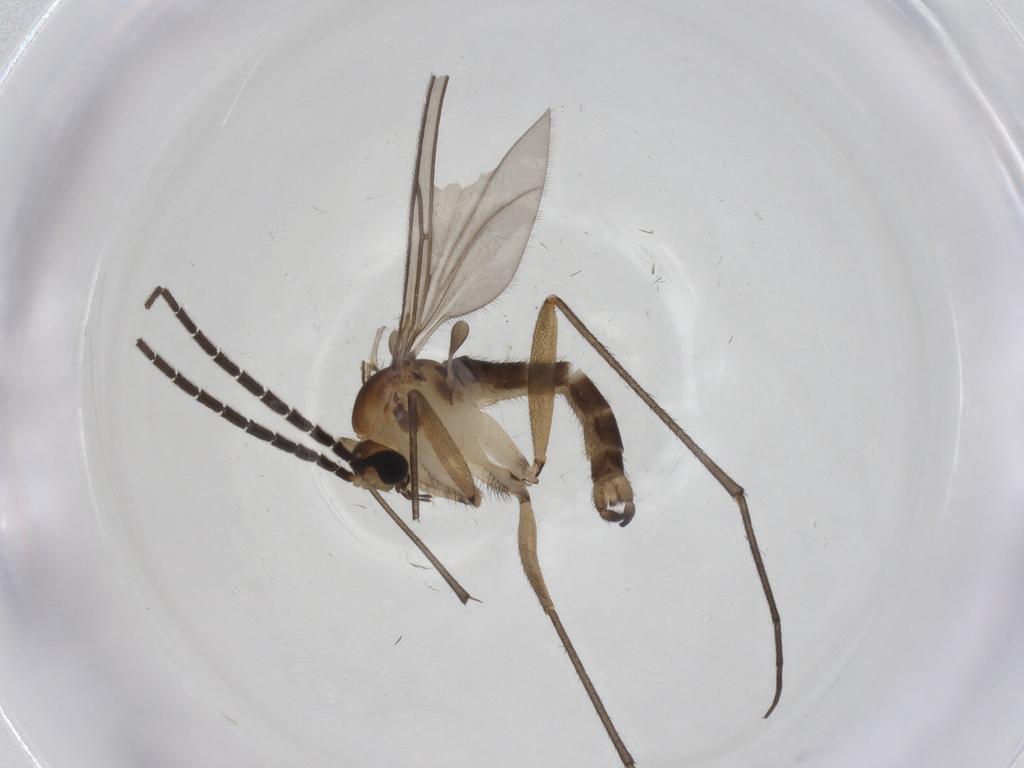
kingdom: Animalia
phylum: Arthropoda
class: Insecta
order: Diptera
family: Sciaridae
